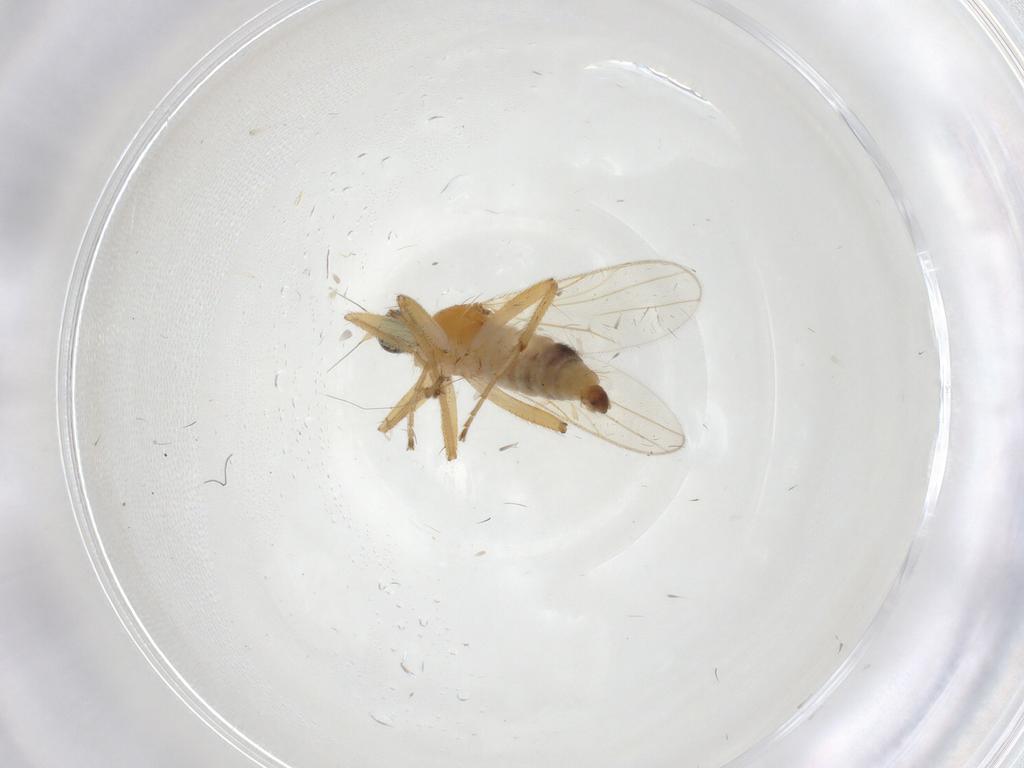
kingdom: Animalia
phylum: Arthropoda
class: Insecta
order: Diptera
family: Hybotidae
